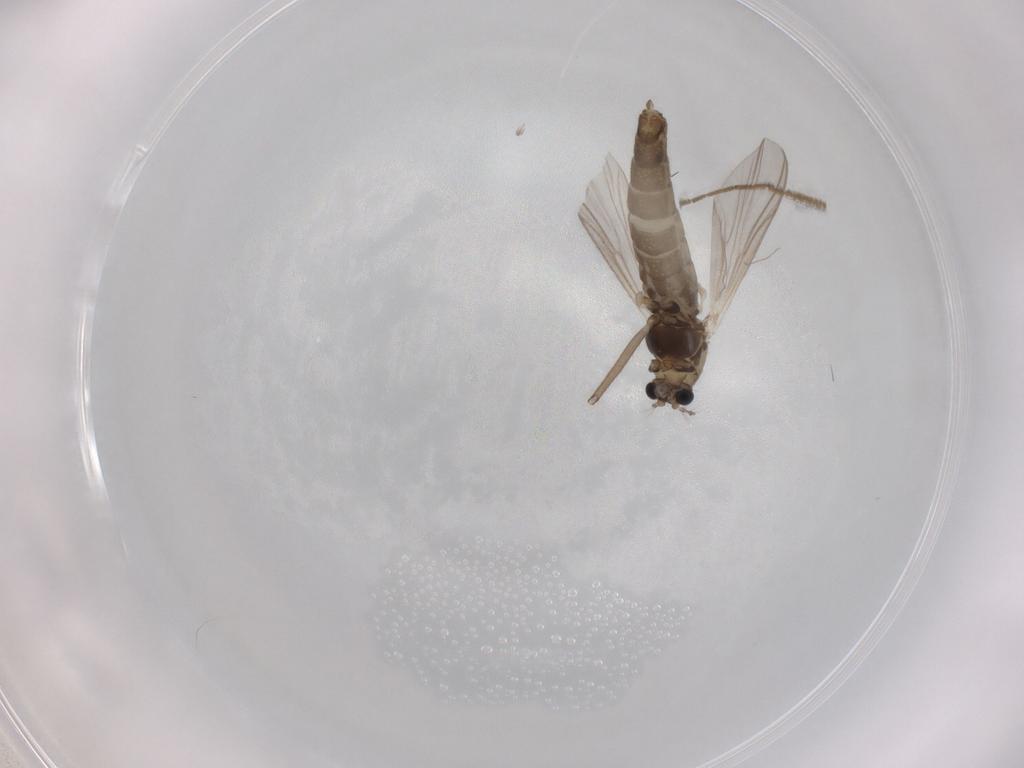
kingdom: Animalia
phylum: Arthropoda
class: Insecta
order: Diptera
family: Chironomidae
